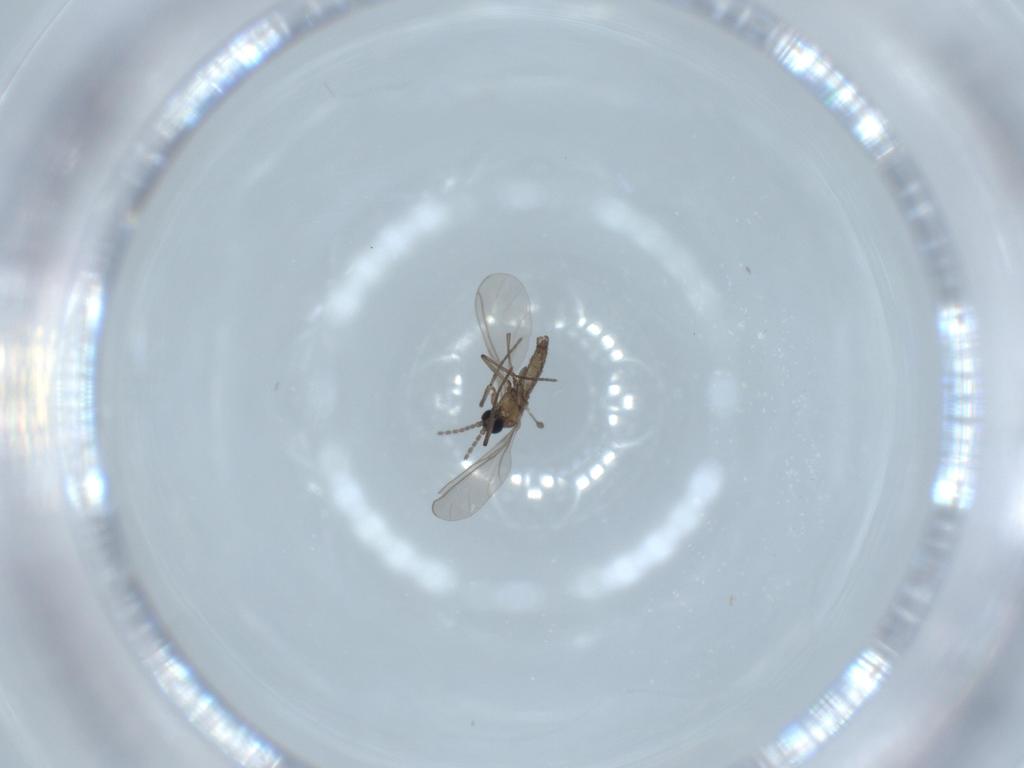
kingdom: Animalia
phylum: Arthropoda
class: Insecta
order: Diptera
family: Sciaridae
